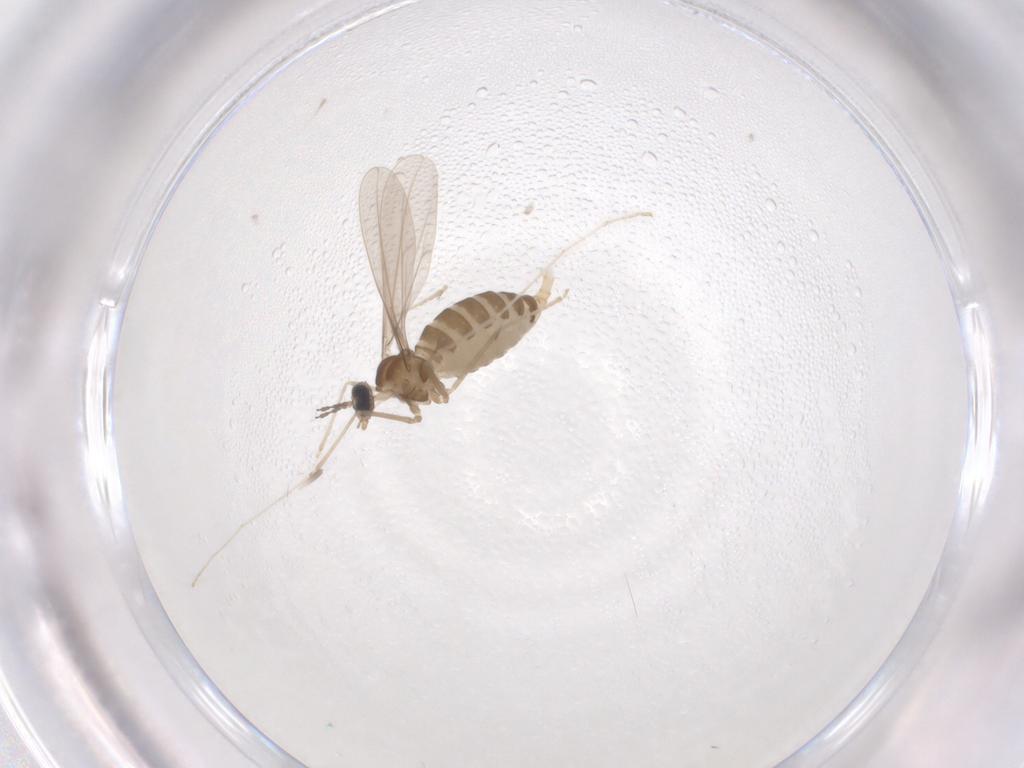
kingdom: Animalia
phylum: Arthropoda
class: Insecta
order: Diptera
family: Cecidomyiidae
